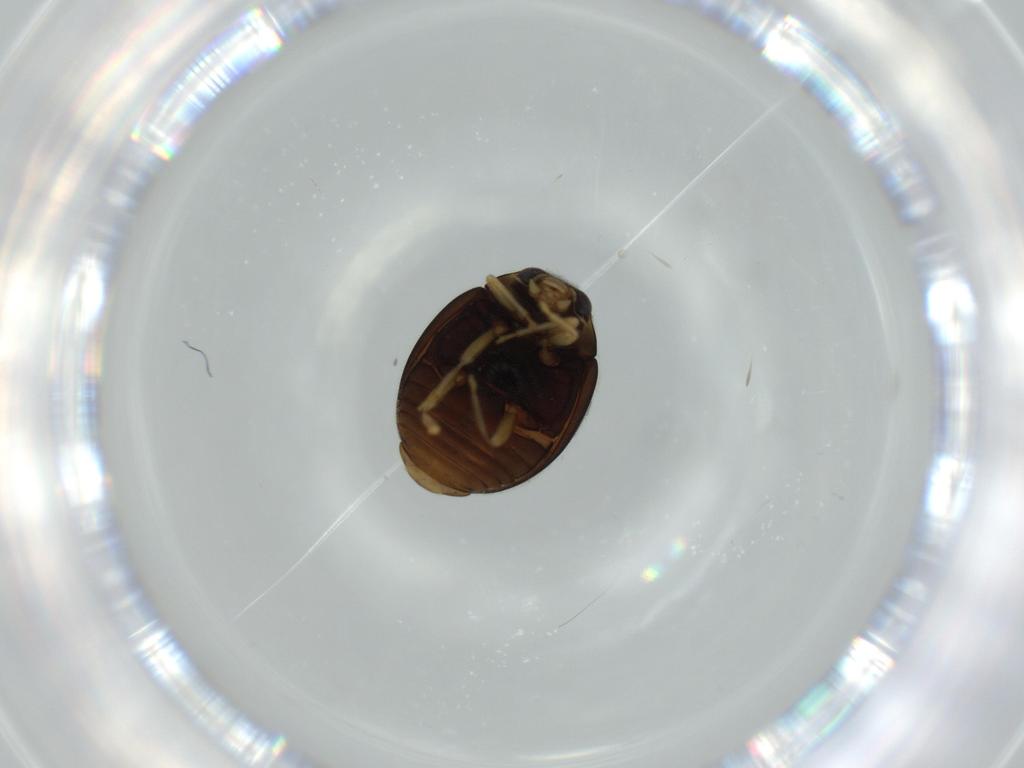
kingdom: Animalia
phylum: Arthropoda
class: Insecta
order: Coleoptera
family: Coccinellidae
